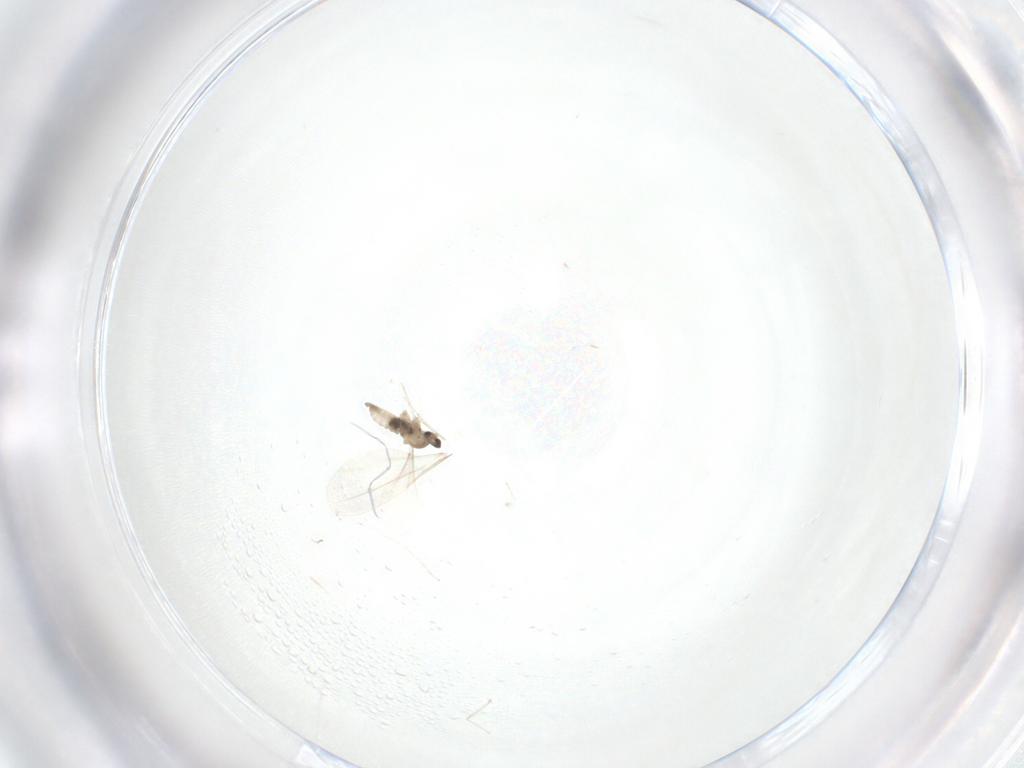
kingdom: Animalia
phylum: Arthropoda
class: Insecta
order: Diptera
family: Cecidomyiidae
